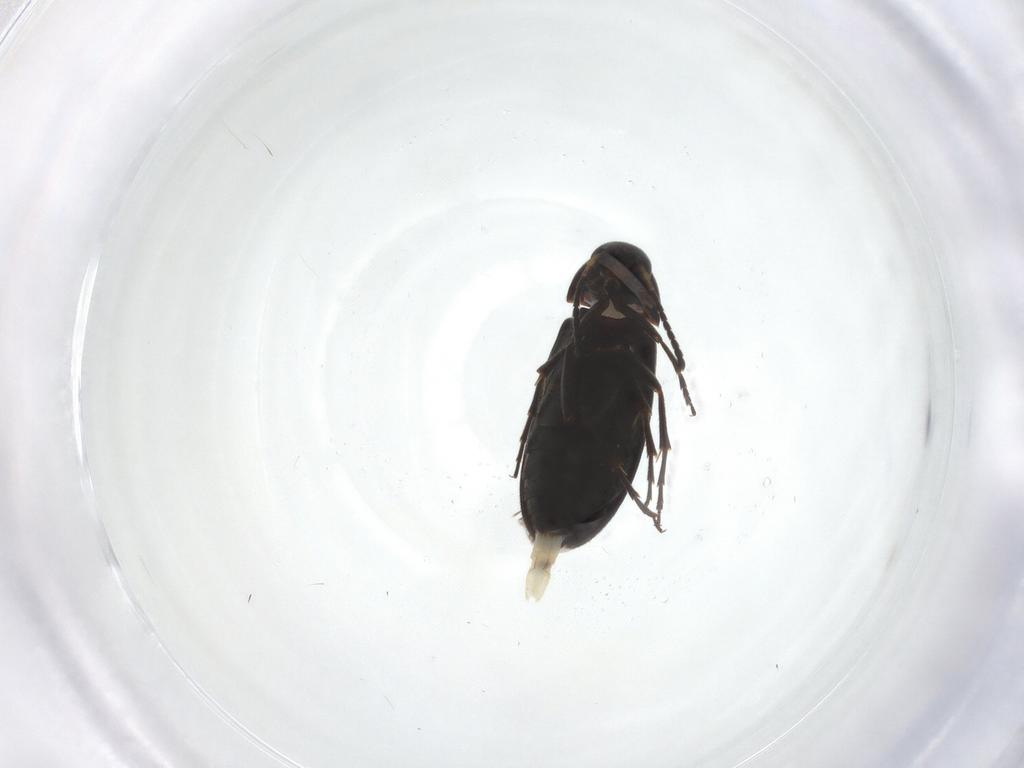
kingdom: Animalia
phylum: Arthropoda
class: Insecta
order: Coleoptera
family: Scraptiidae
